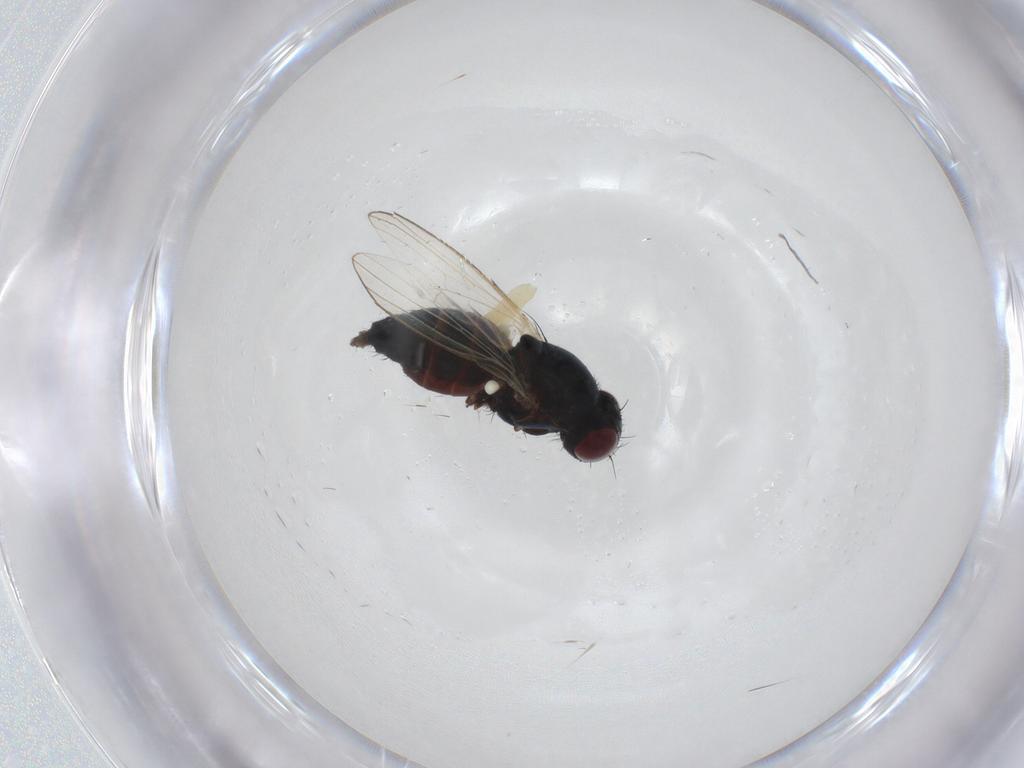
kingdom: Animalia
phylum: Arthropoda
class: Insecta
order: Diptera
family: Carnidae
